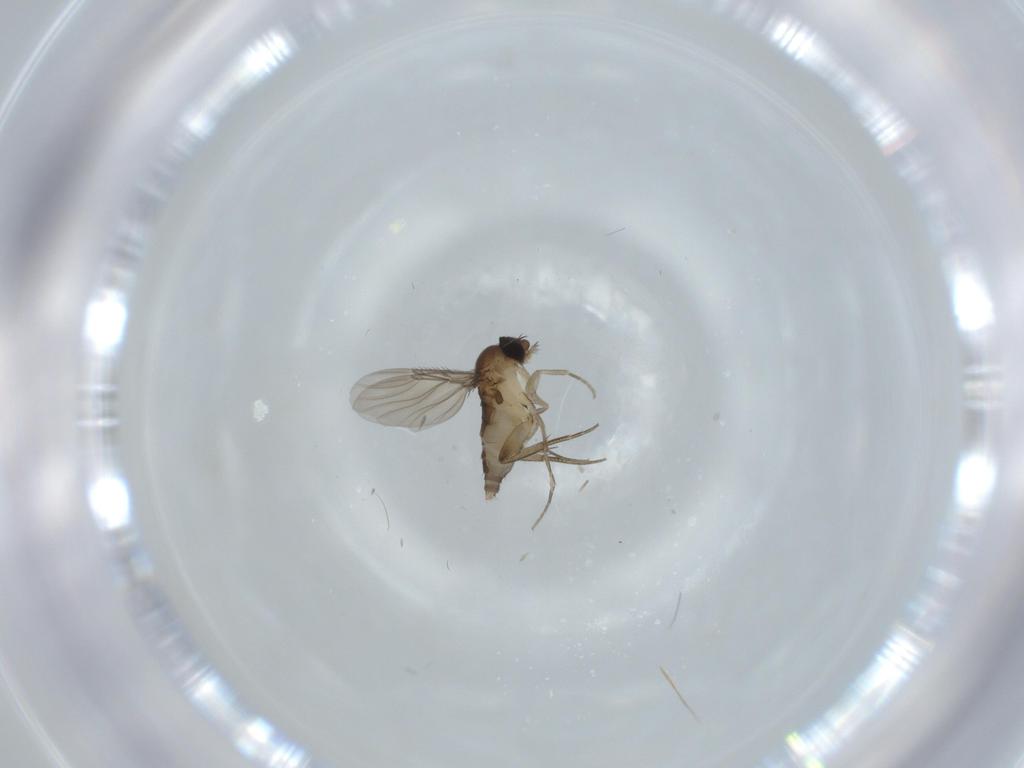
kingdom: Animalia
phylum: Arthropoda
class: Insecta
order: Diptera
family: Phoridae
